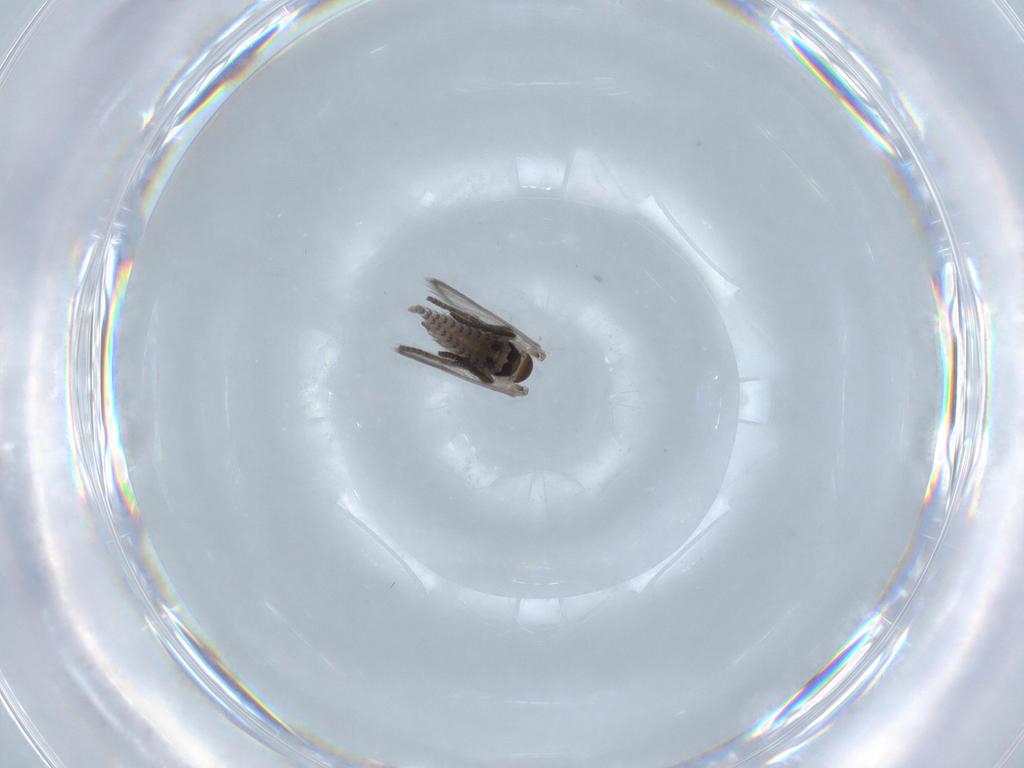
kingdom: Animalia
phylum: Arthropoda
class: Insecta
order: Diptera
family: Psychodidae
